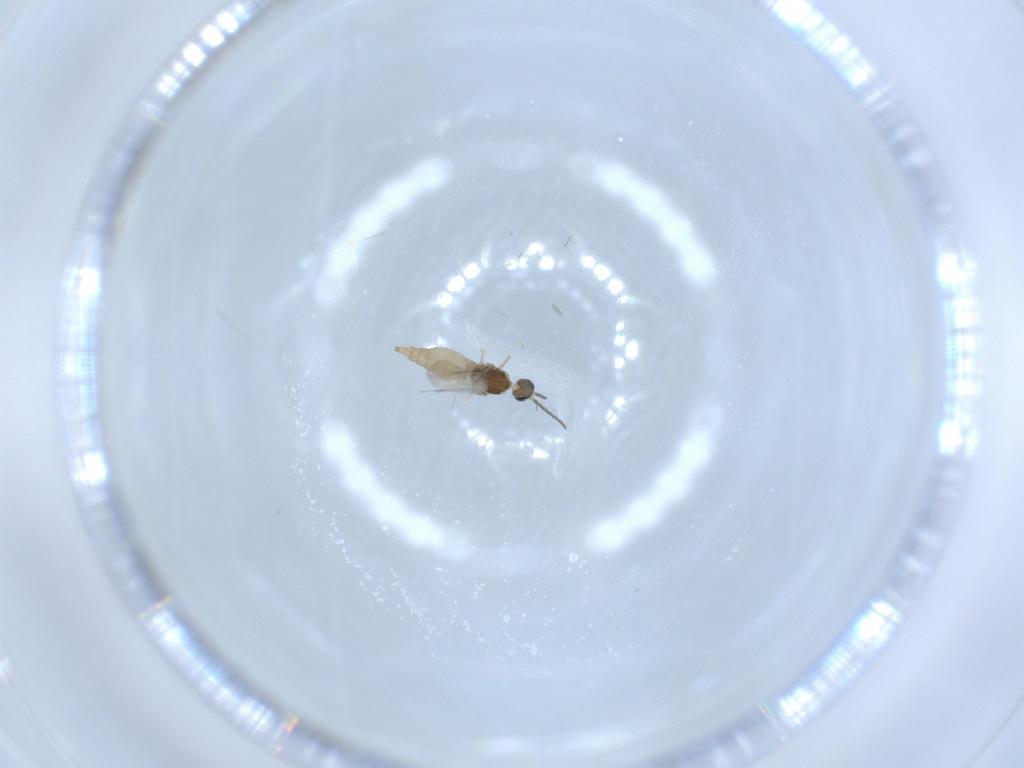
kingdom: Animalia
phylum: Arthropoda
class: Insecta
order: Diptera
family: Cecidomyiidae
